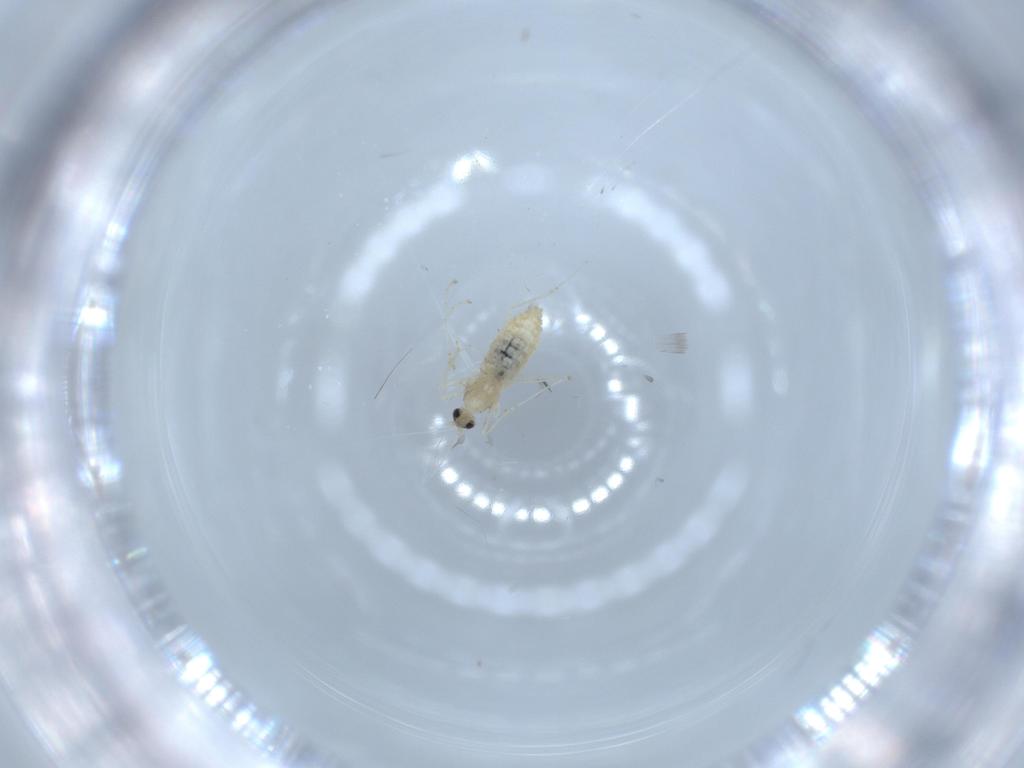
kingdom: Animalia
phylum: Arthropoda
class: Insecta
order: Diptera
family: Cecidomyiidae
